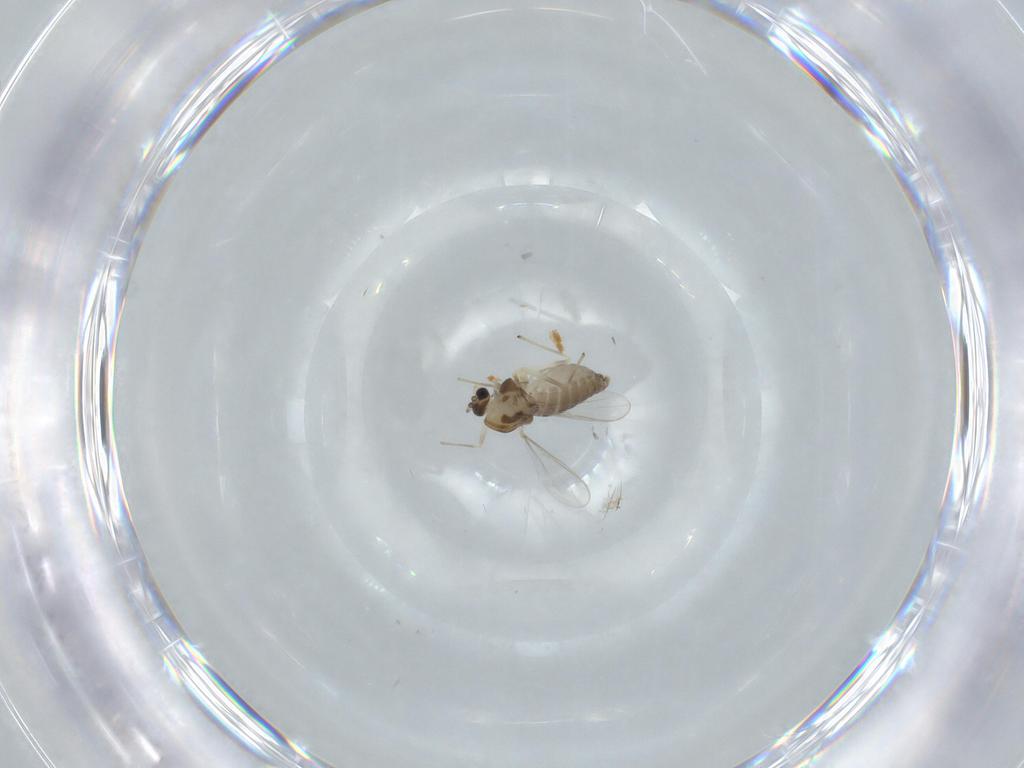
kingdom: Animalia
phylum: Arthropoda
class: Insecta
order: Diptera
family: Chironomidae
